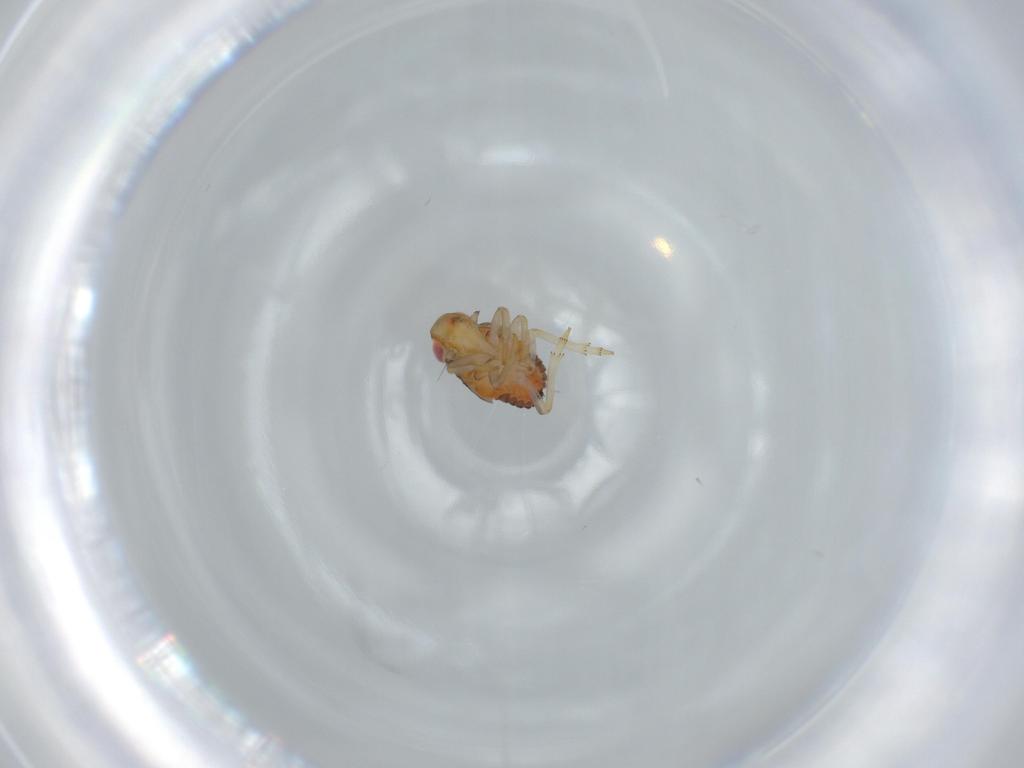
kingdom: Animalia
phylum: Arthropoda
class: Insecta
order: Hemiptera
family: Issidae
